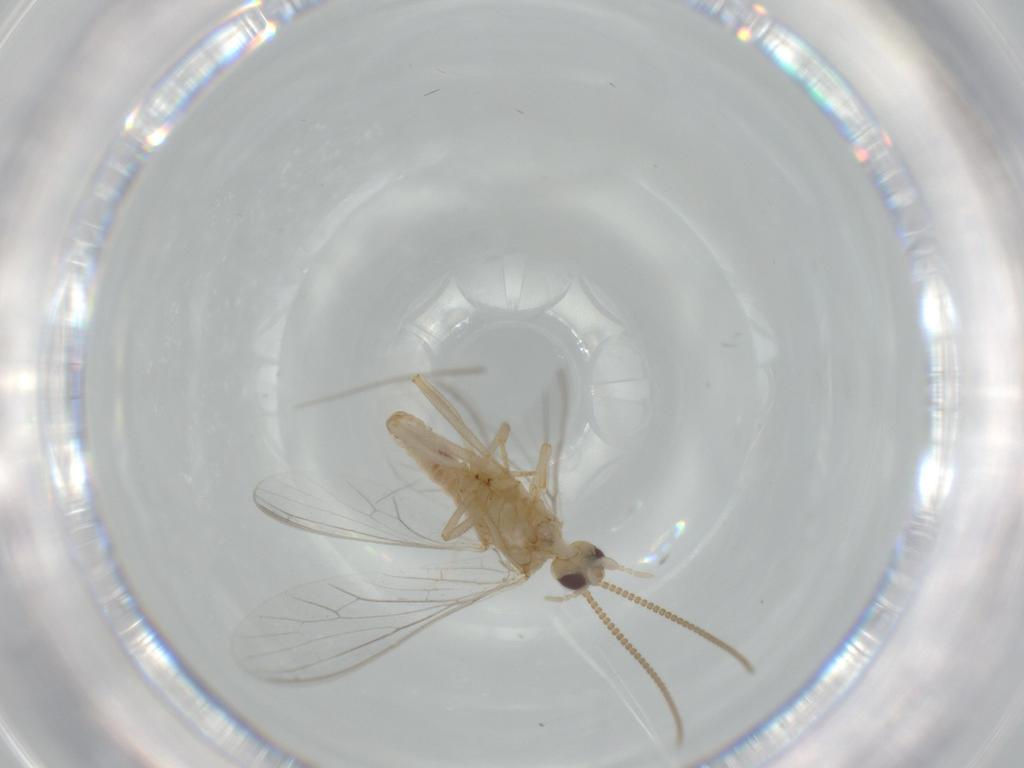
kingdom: Animalia
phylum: Arthropoda
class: Insecta
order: Neuroptera
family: Coniopterygidae
